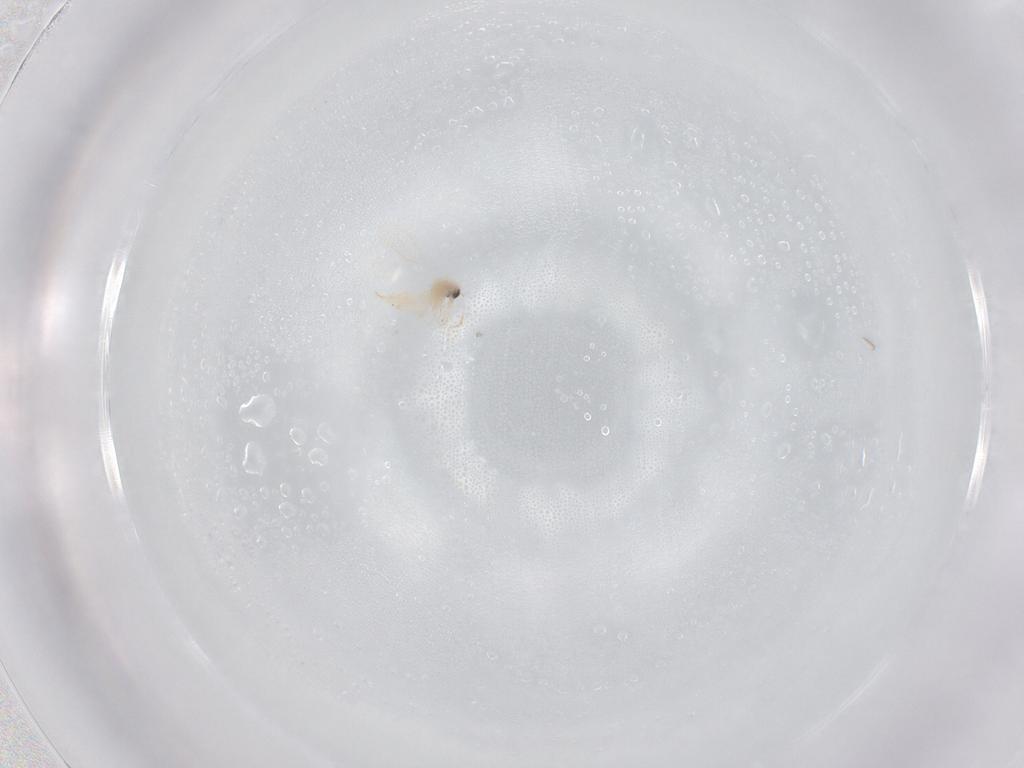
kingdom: Animalia
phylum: Arthropoda
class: Insecta
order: Hemiptera
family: Aleyrodidae
